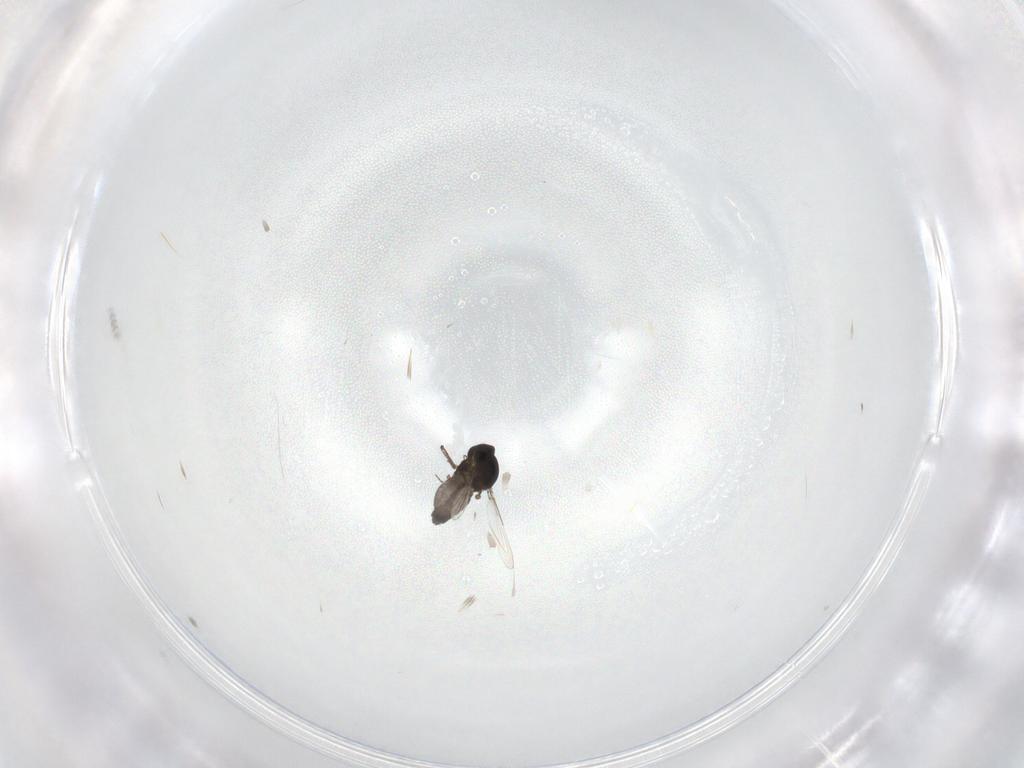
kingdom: Animalia
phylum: Arthropoda
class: Insecta
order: Diptera
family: Ceratopogonidae
